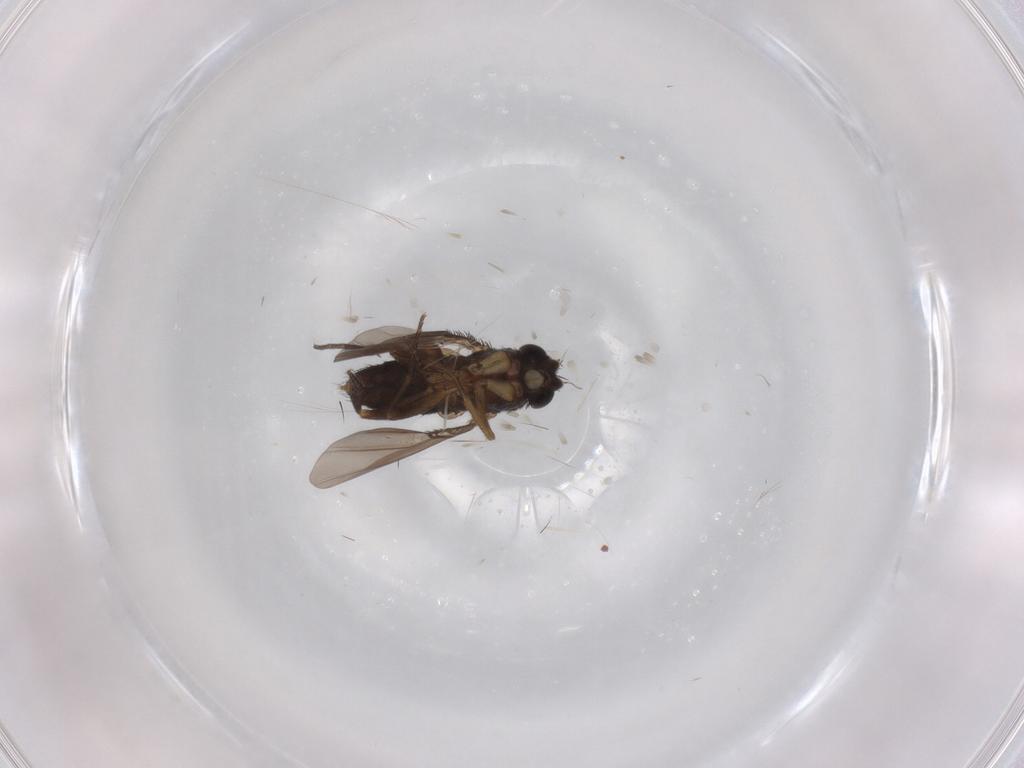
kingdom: Animalia
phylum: Arthropoda
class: Insecta
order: Diptera
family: Phoridae
